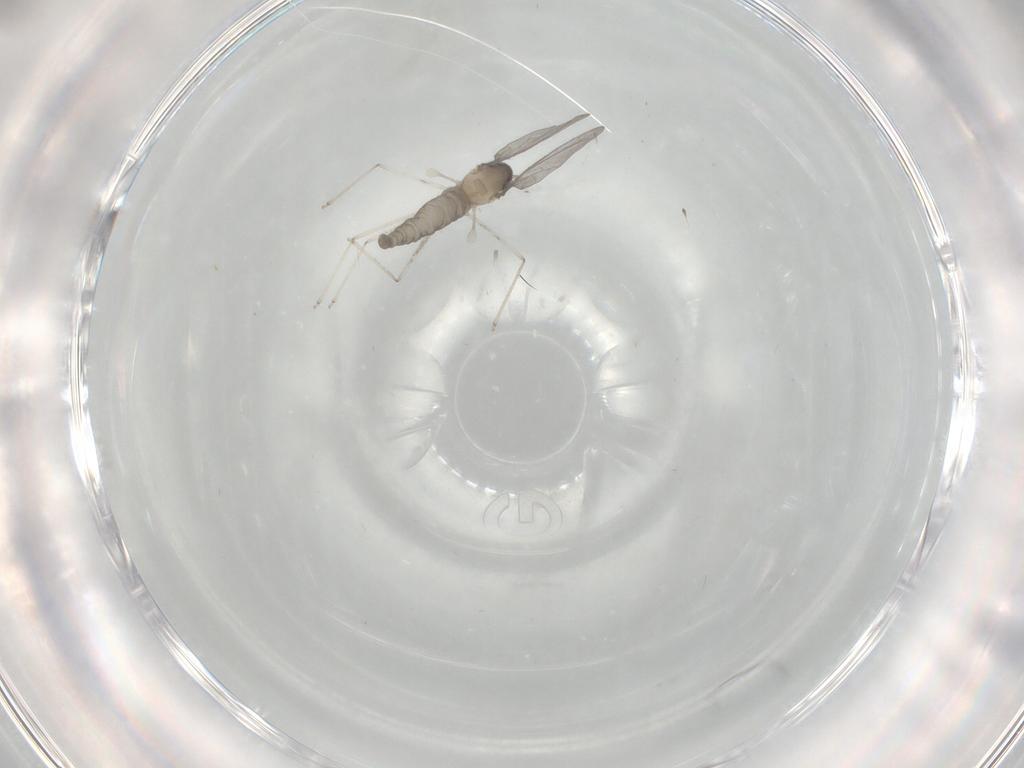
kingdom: Animalia
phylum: Arthropoda
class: Insecta
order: Diptera
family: Cecidomyiidae
